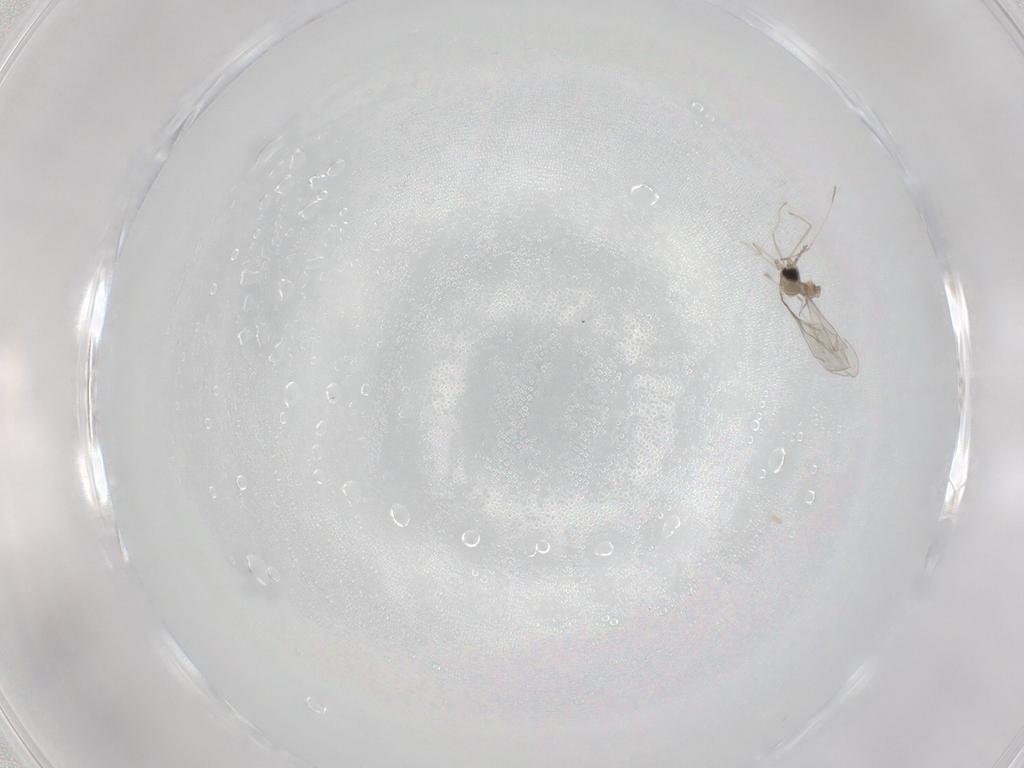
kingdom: Animalia
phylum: Arthropoda
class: Insecta
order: Diptera
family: Cecidomyiidae
